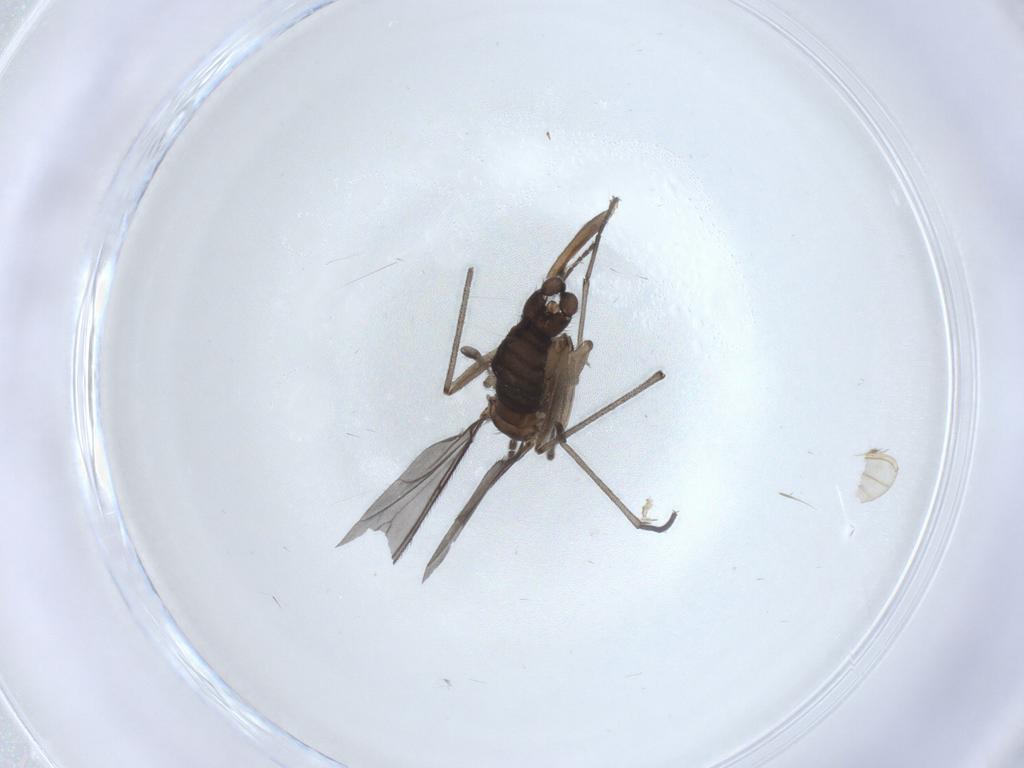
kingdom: Animalia
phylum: Arthropoda
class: Insecta
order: Diptera
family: Sciaridae
